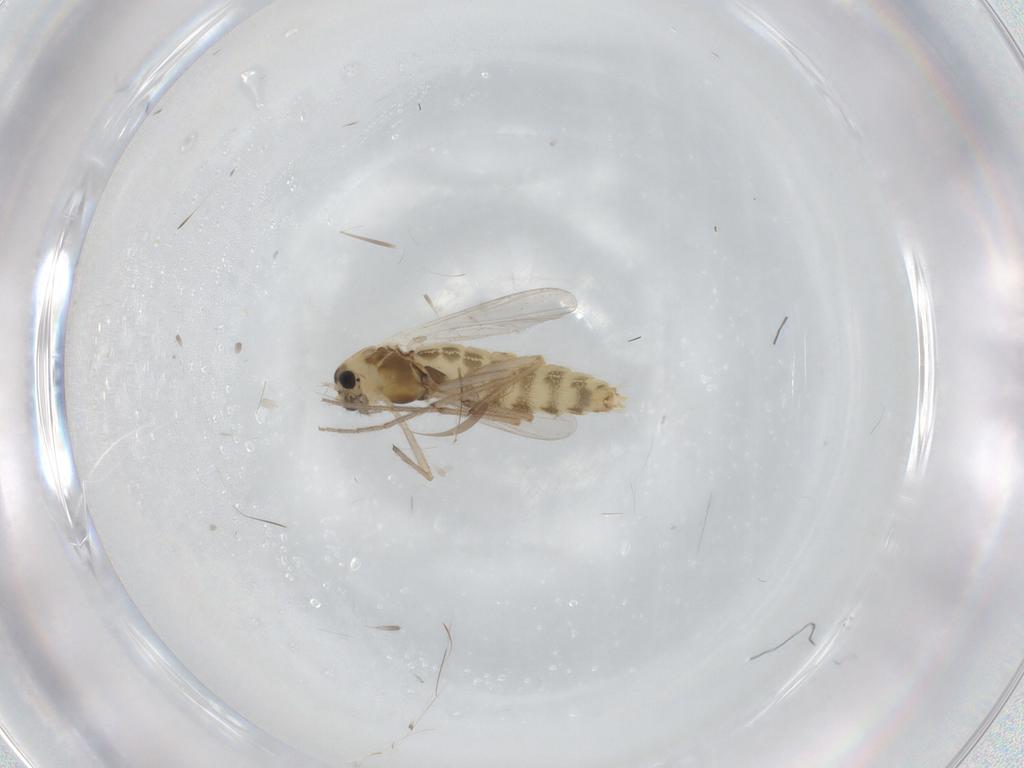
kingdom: Animalia
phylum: Arthropoda
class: Insecta
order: Diptera
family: Chironomidae
